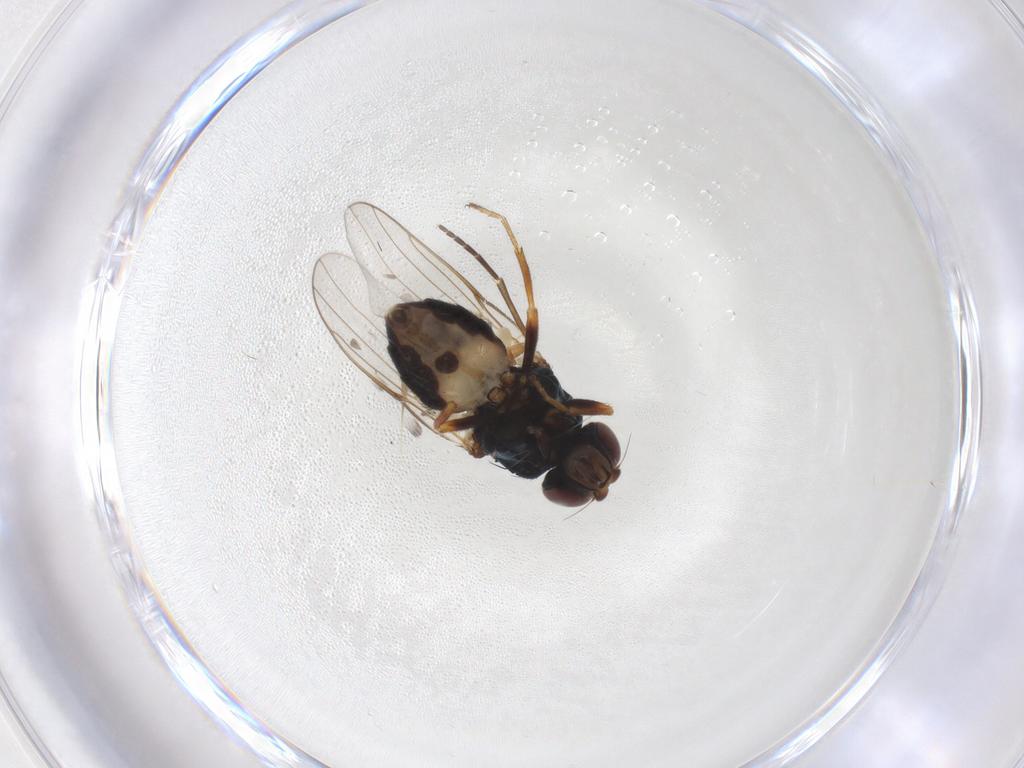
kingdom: Animalia
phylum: Arthropoda
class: Insecta
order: Diptera
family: Chloropidae
